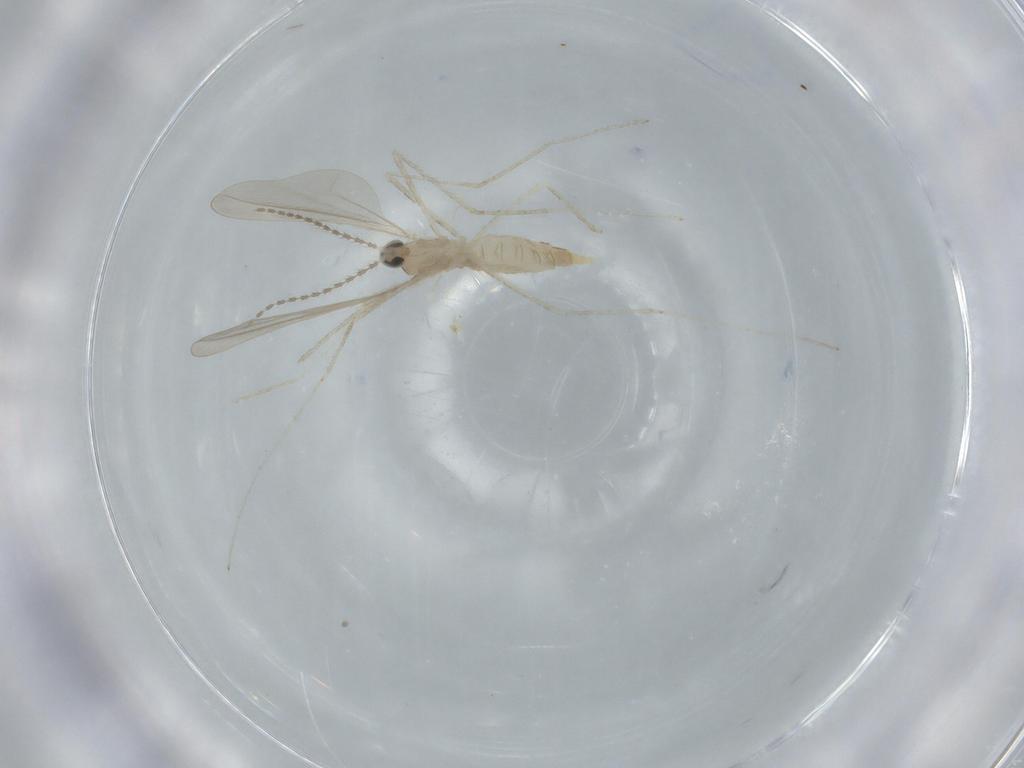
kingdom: Animalia
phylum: Arthropoda
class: Insecta
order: Diptera
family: Cecidomyiidae
